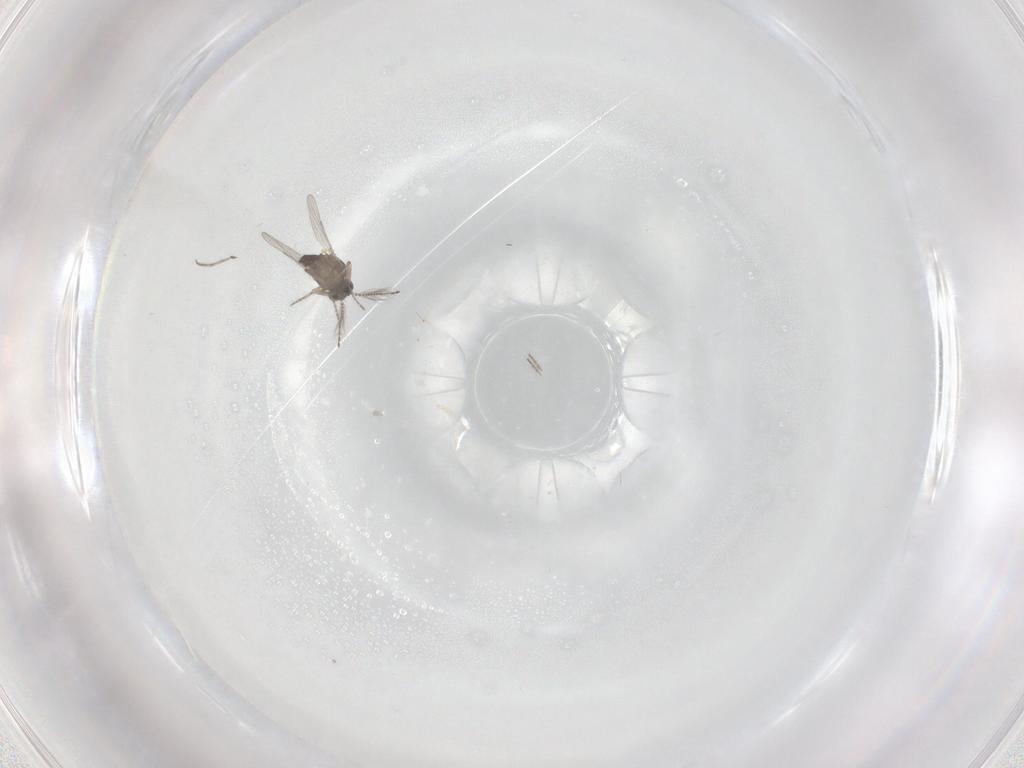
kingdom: Animalia
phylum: Arthropoda
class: Insecta
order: Diptera
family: Ceratopogonidae
